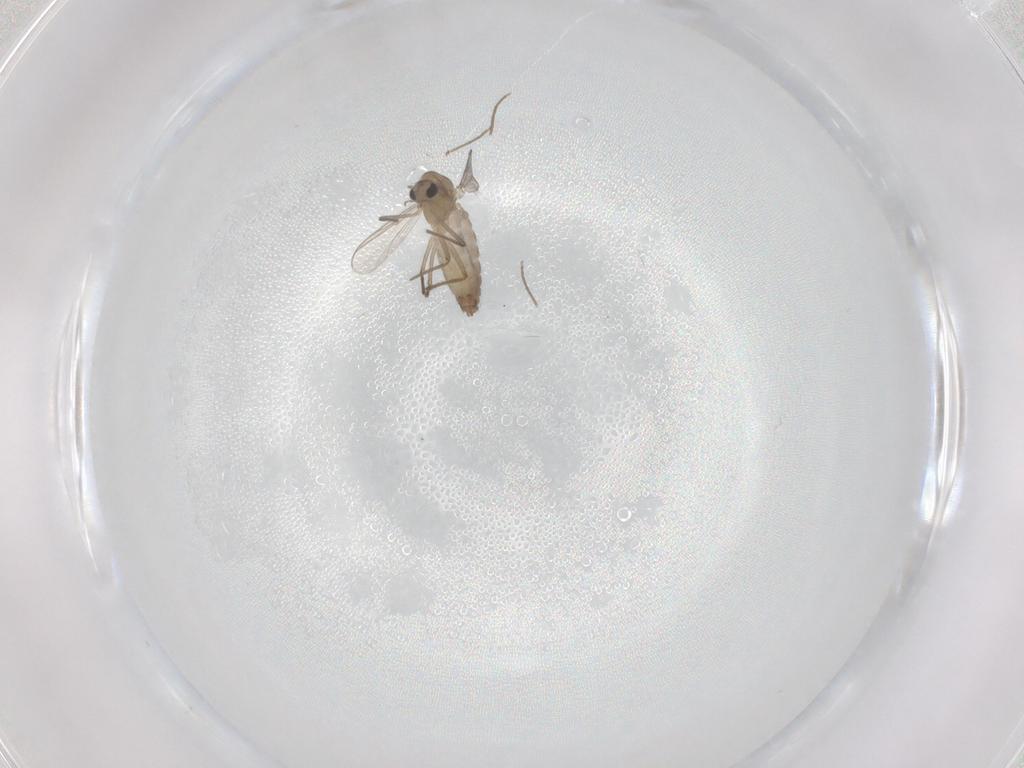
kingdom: Animalia
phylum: Arthropoda
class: Insecta
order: Diptera
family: Chironomidae
